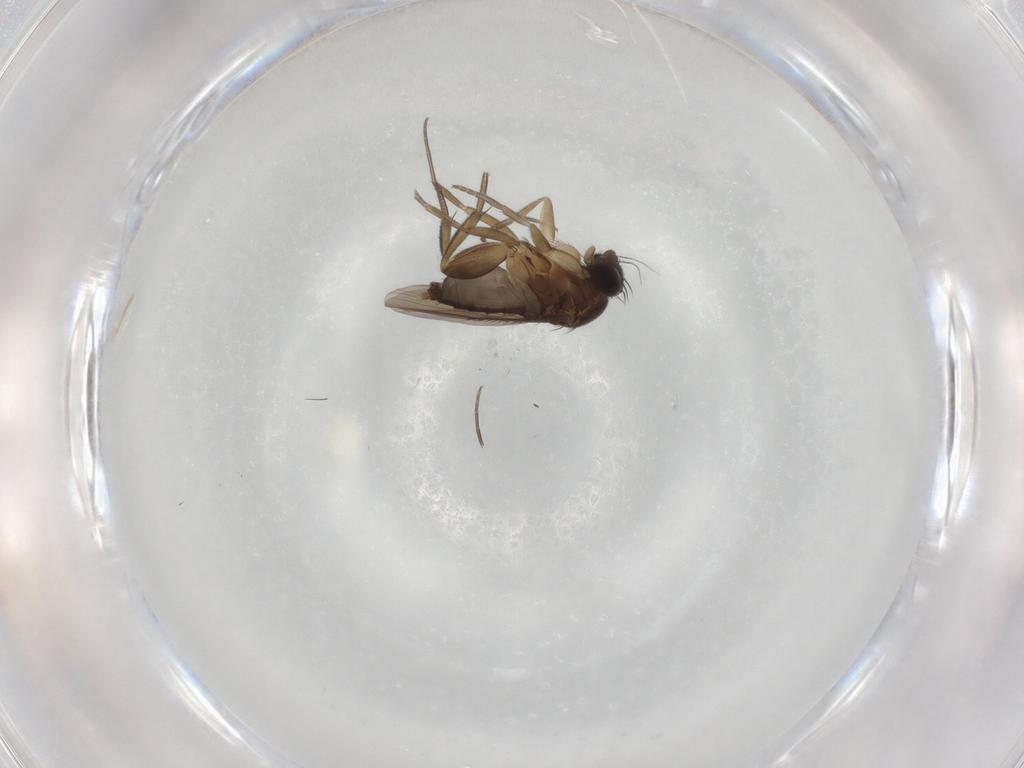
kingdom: Animalia
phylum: Arthropoda
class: Insecta
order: Diptera
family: Phoridae
